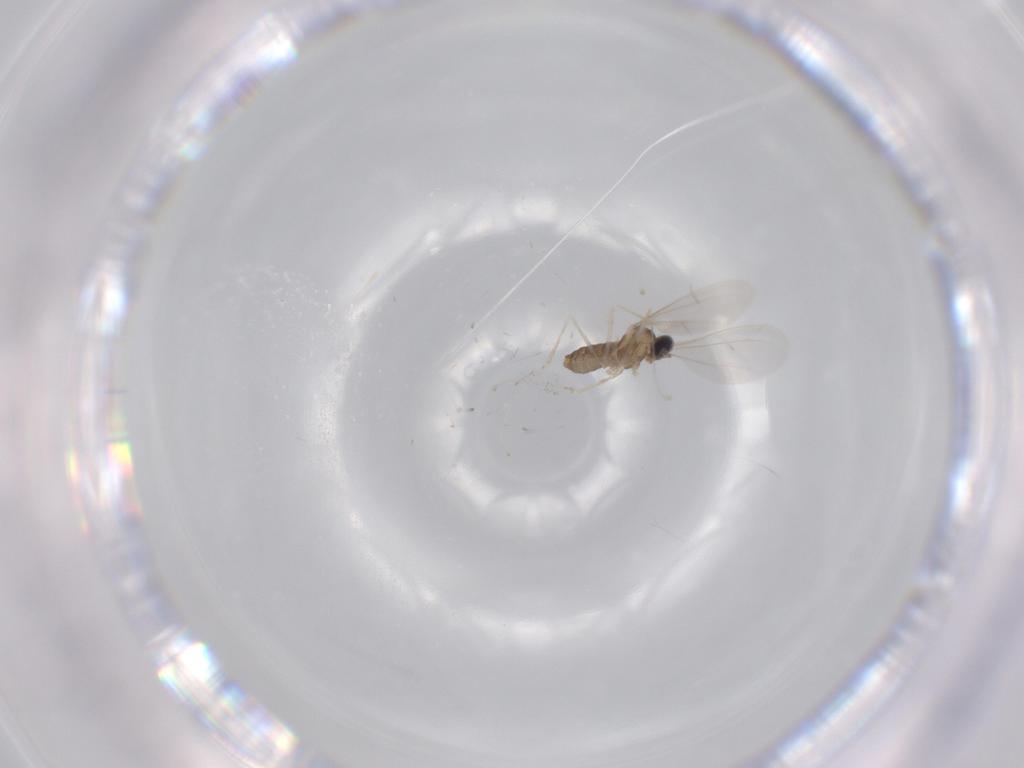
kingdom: Animalia
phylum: Arthropoda
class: Insecta
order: Diptera
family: Cecidomyiidae
